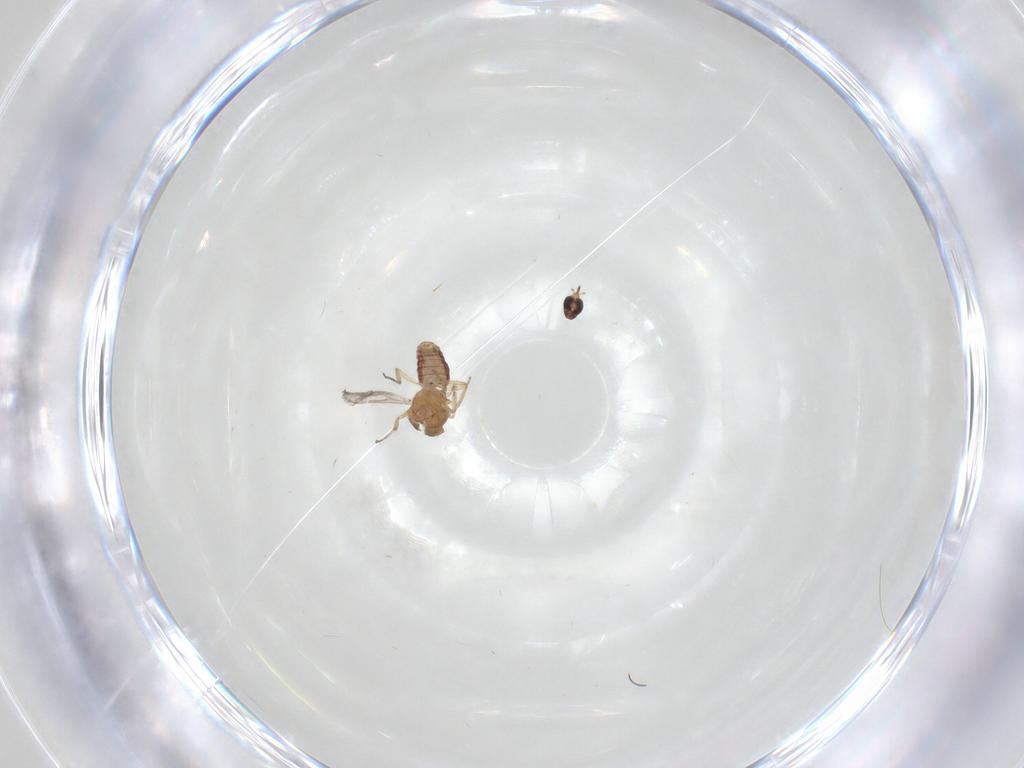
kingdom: Animalia
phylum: Arthropoda
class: Insecta
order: Diptera
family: Ceratopogonidae
